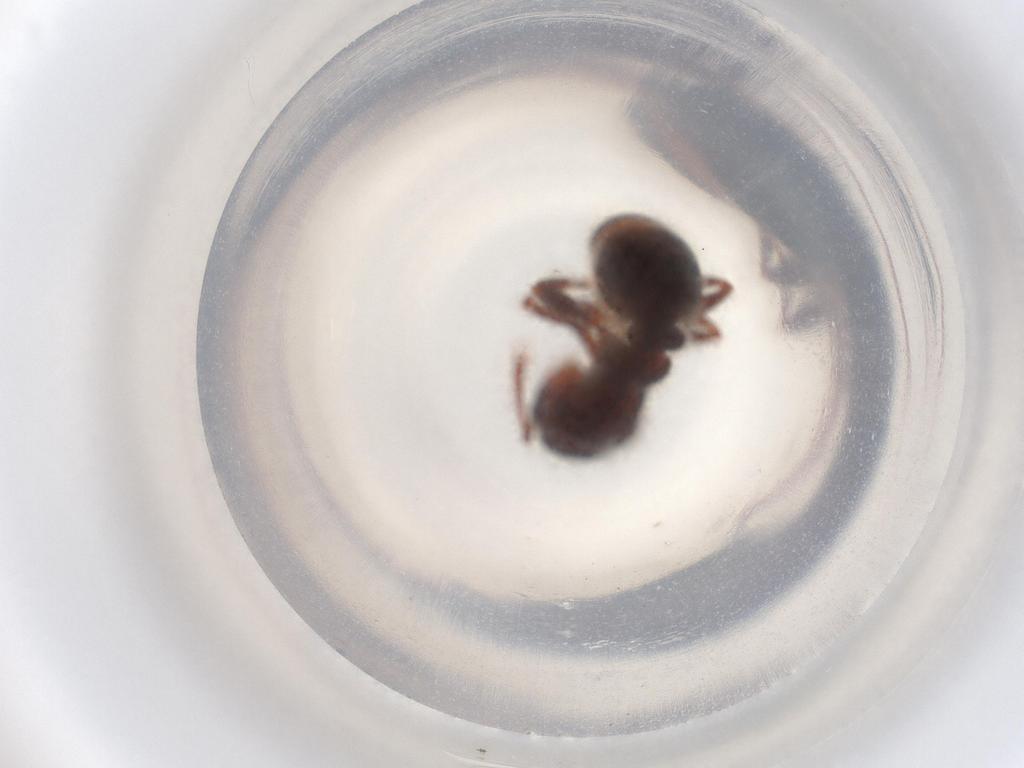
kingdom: Animalia
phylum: Arthropoda
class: Insecta
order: Hymenoptera
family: Formicidae
